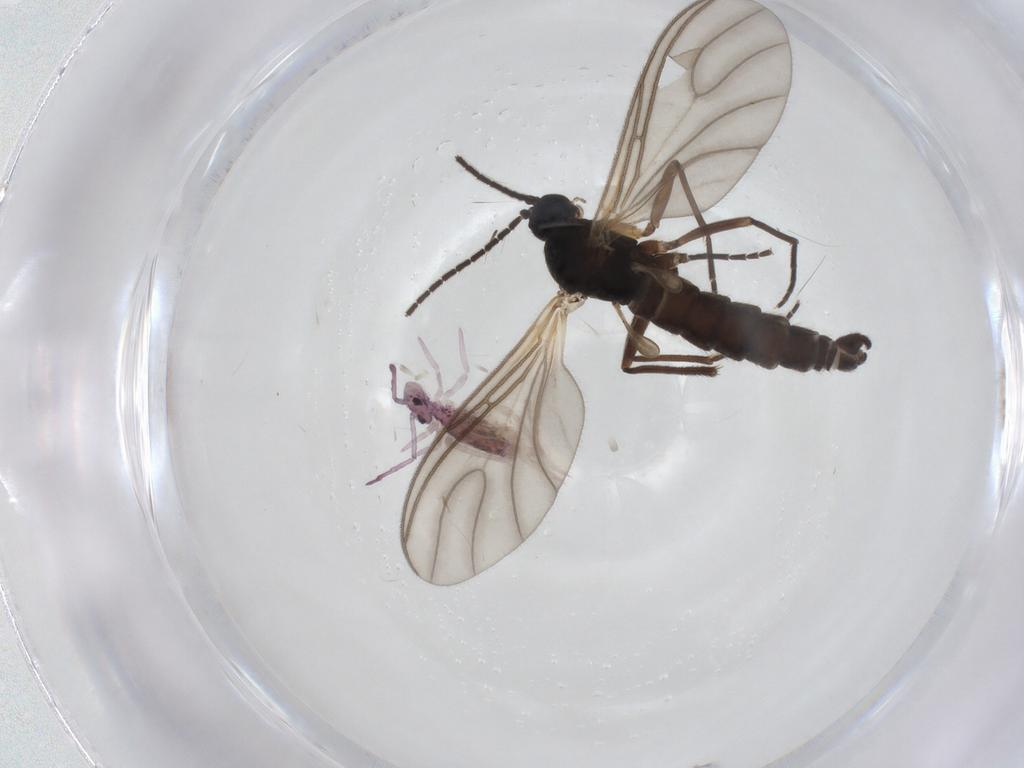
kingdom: Animalia
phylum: Arthropoda
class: Insecta
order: Diptera
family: Sciaridae
